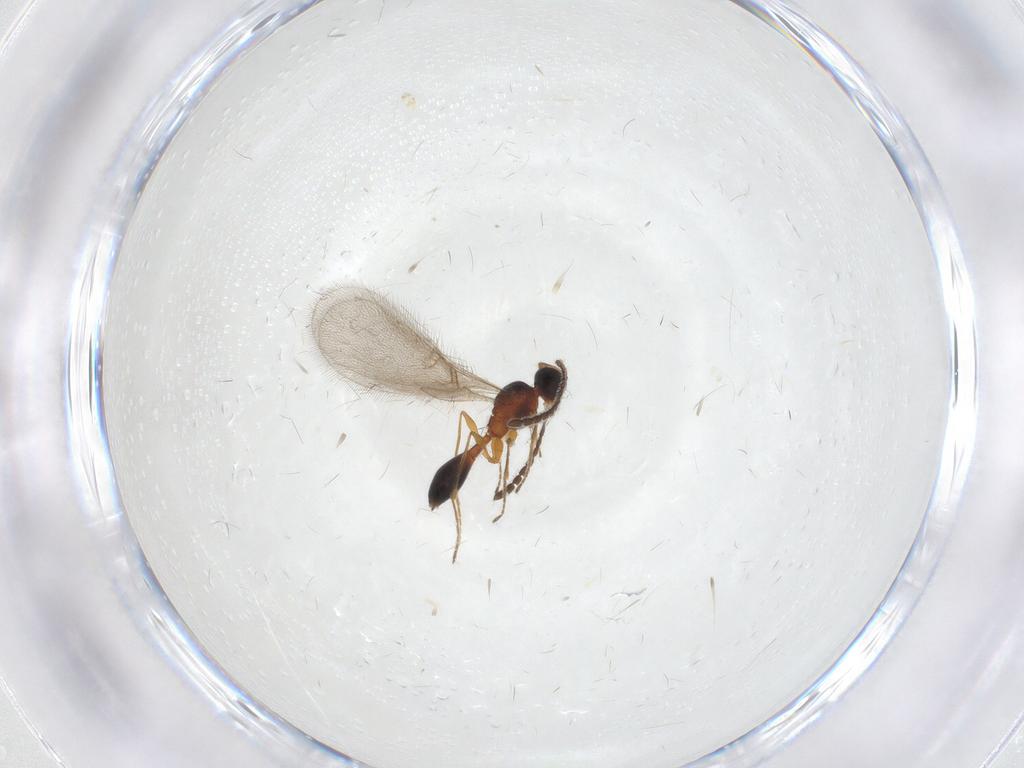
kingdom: Animalia
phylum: Arthropoda
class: Insecta
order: Hymenoptera
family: Diapriidae
